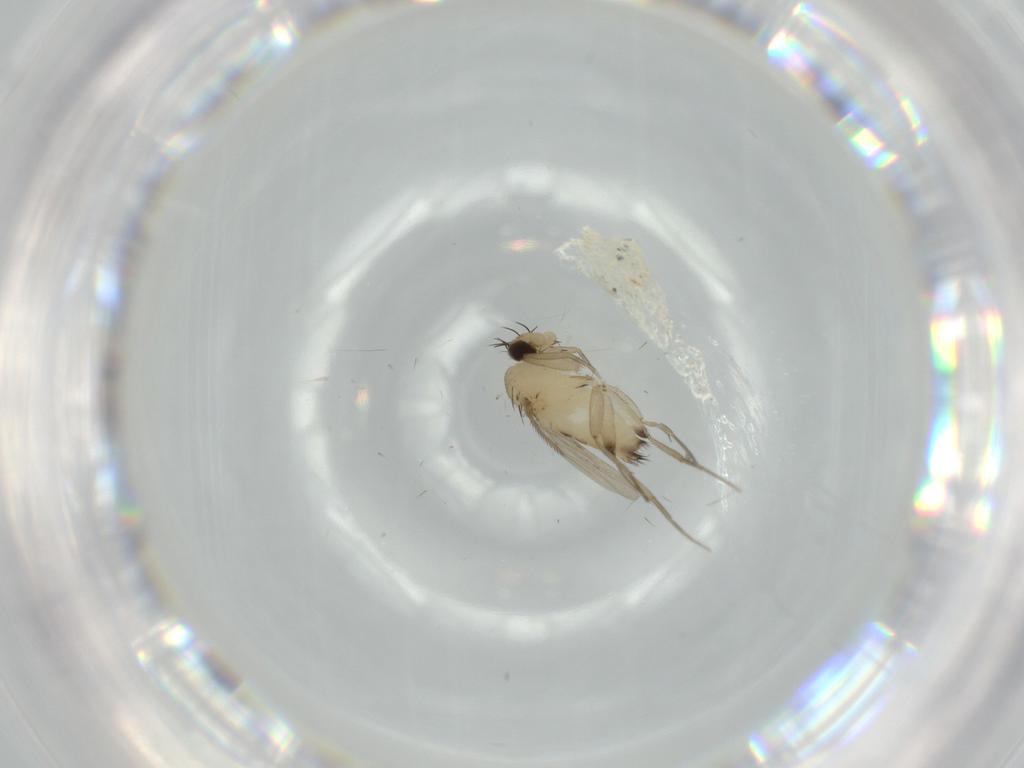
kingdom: Animalia
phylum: Arthropoda
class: Insecta
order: Diptera
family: Phoridae
